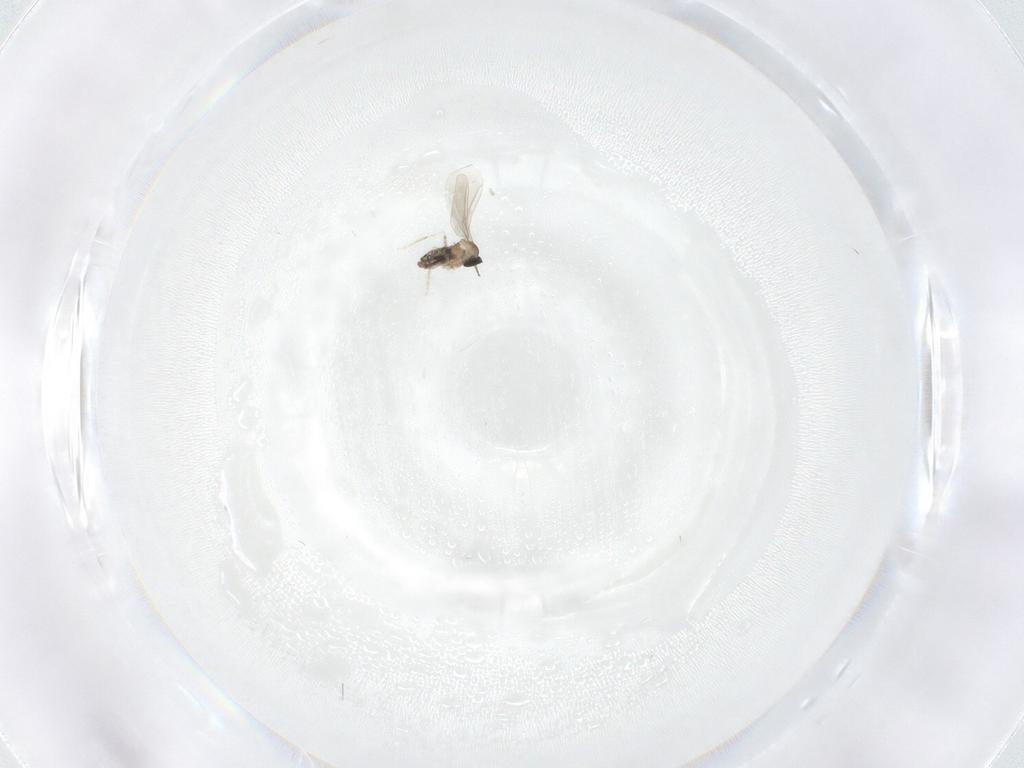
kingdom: Animalia
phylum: Arthropoda
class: Insecta
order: Diptera
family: Cecidomyiidae
